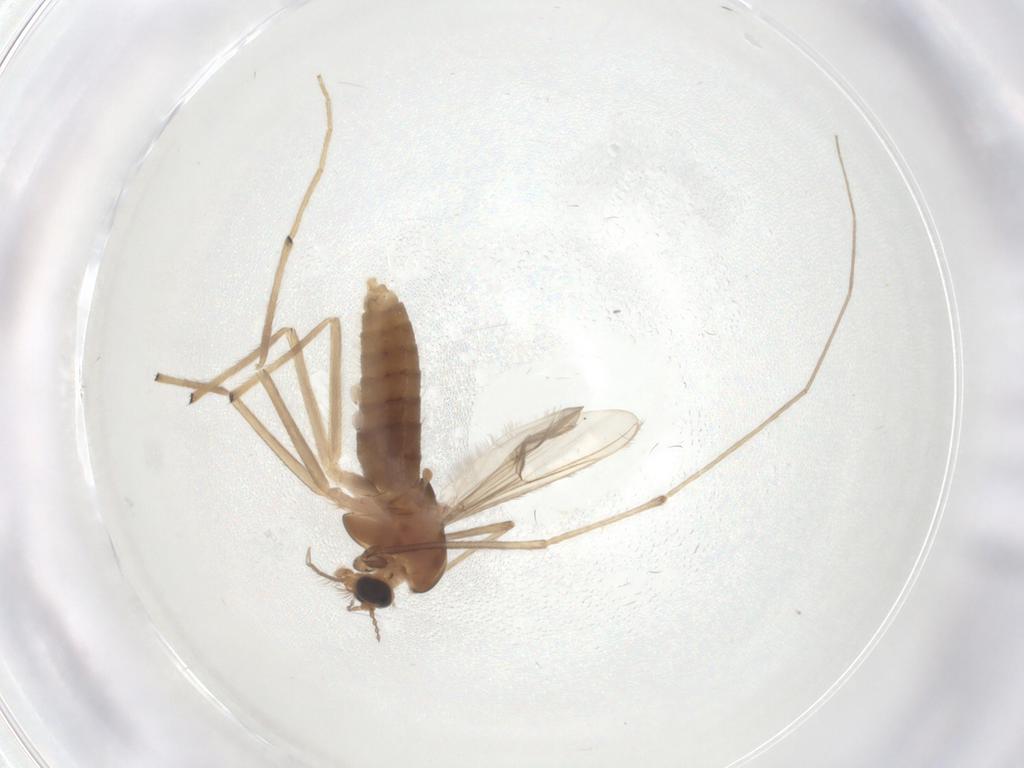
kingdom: Animalia
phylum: Arthropoda
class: Insecta
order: Diptera
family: Chironomidae
